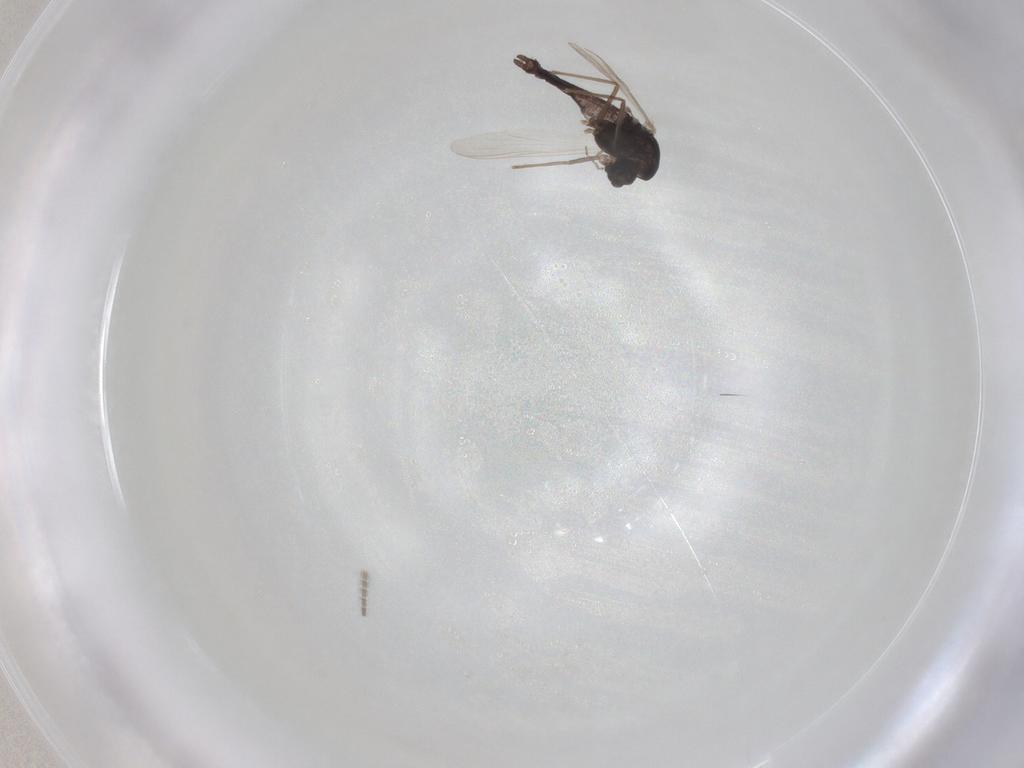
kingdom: Animalia
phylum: Arthropoda
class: Insecta
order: Diptera
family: Chironomidae
